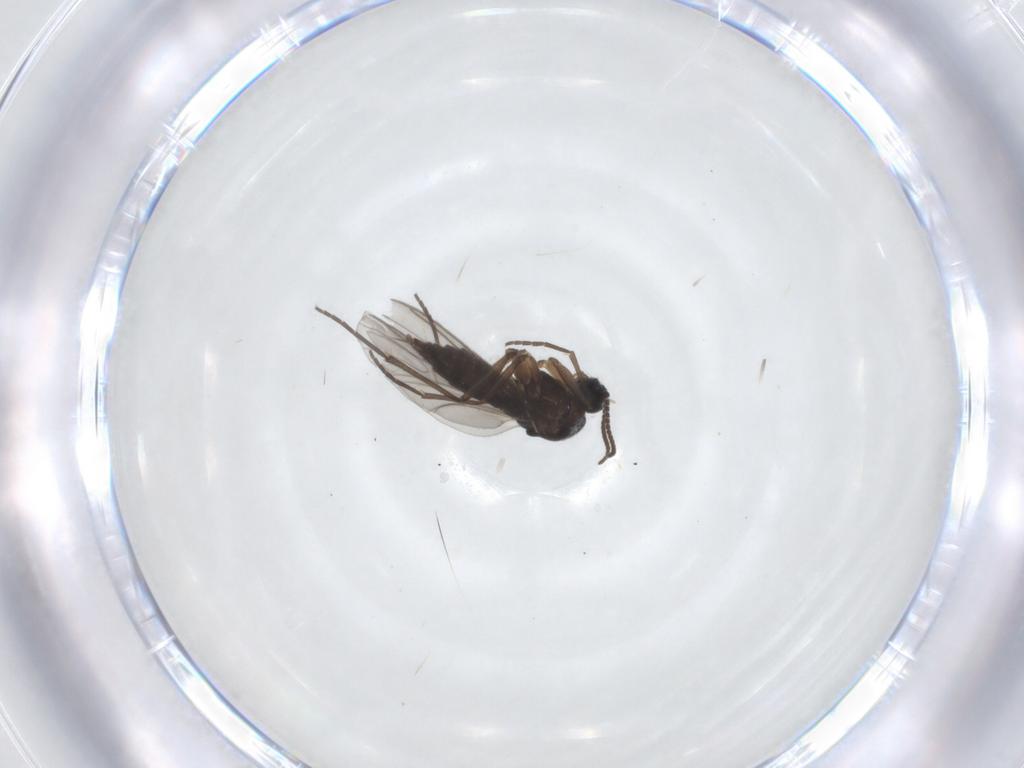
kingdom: Animalia
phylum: Arthropoda
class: Insecta
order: Diptera
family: Sciaridae
